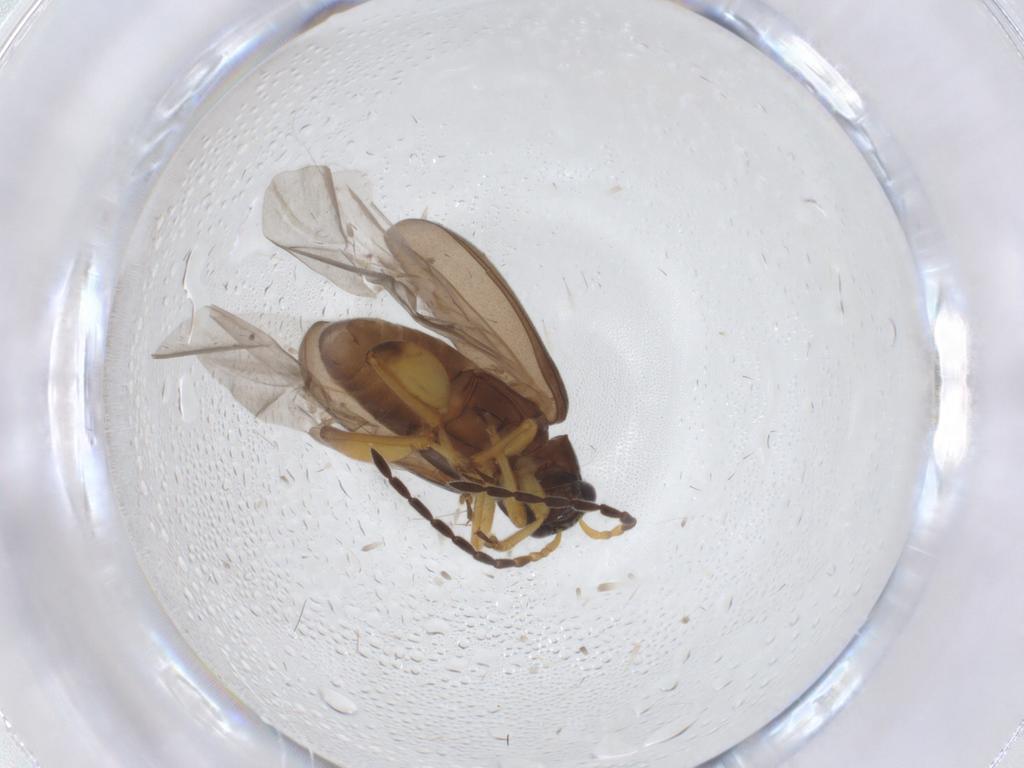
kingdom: Animalia
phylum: Arthropoda
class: Insecta
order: Coleoptera
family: Chrysomelidae
